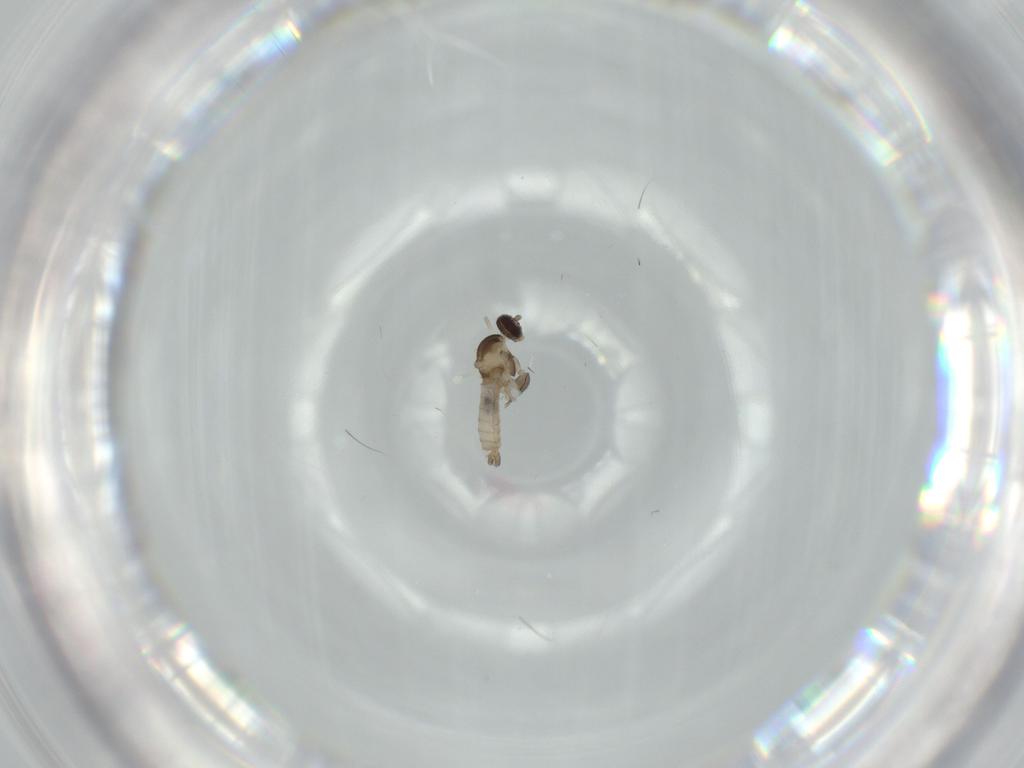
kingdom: Animalia
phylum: Arthropoda
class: Insecta
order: Diptera
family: Cecidomyiidae
